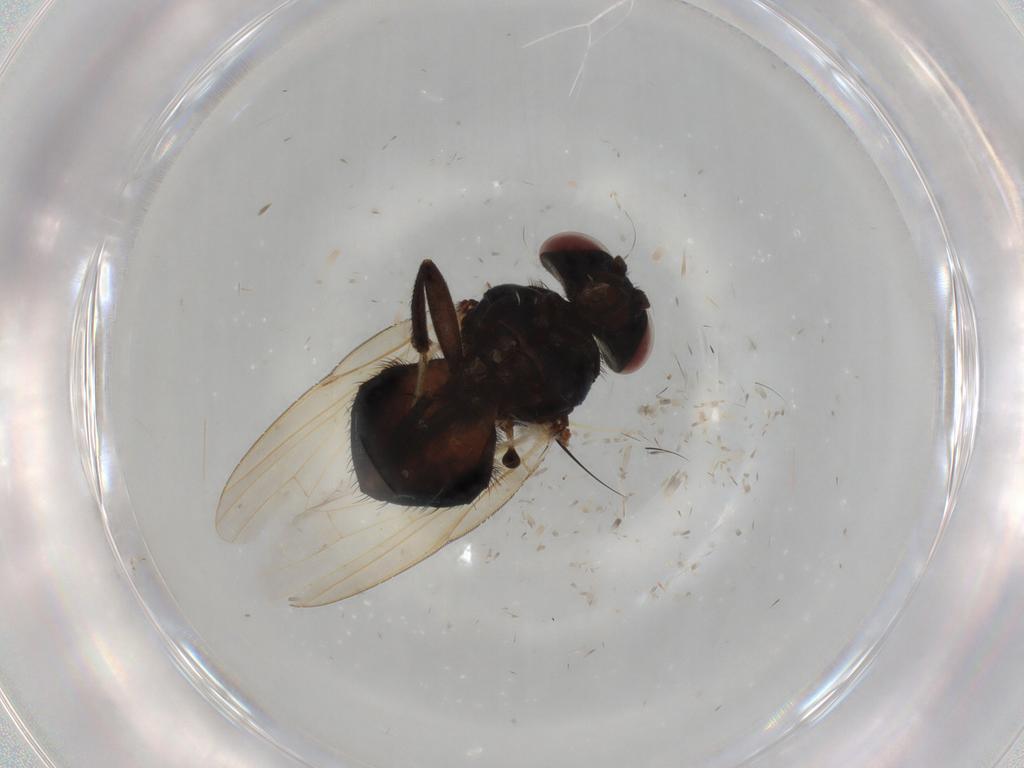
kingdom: Animalia
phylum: Arthropoda
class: Insecta
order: Diptera
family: Lonchaeidae
